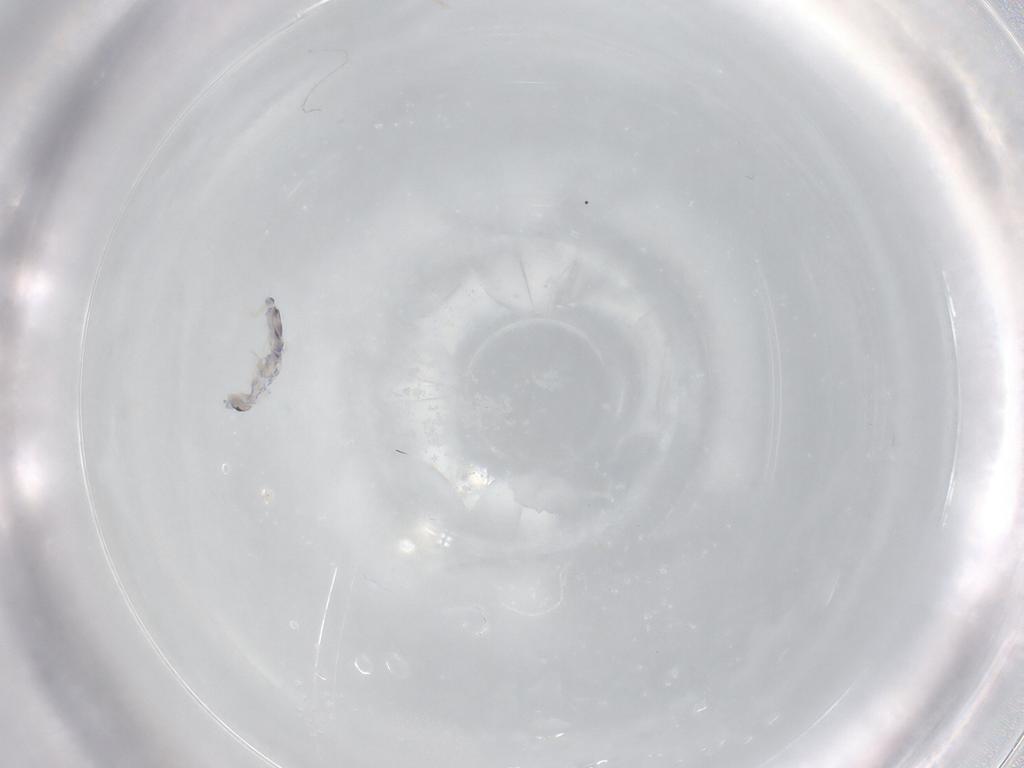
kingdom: Animalia
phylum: Arthropoda
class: Collembola
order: Entomobryomorpha
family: Entomobryidae
